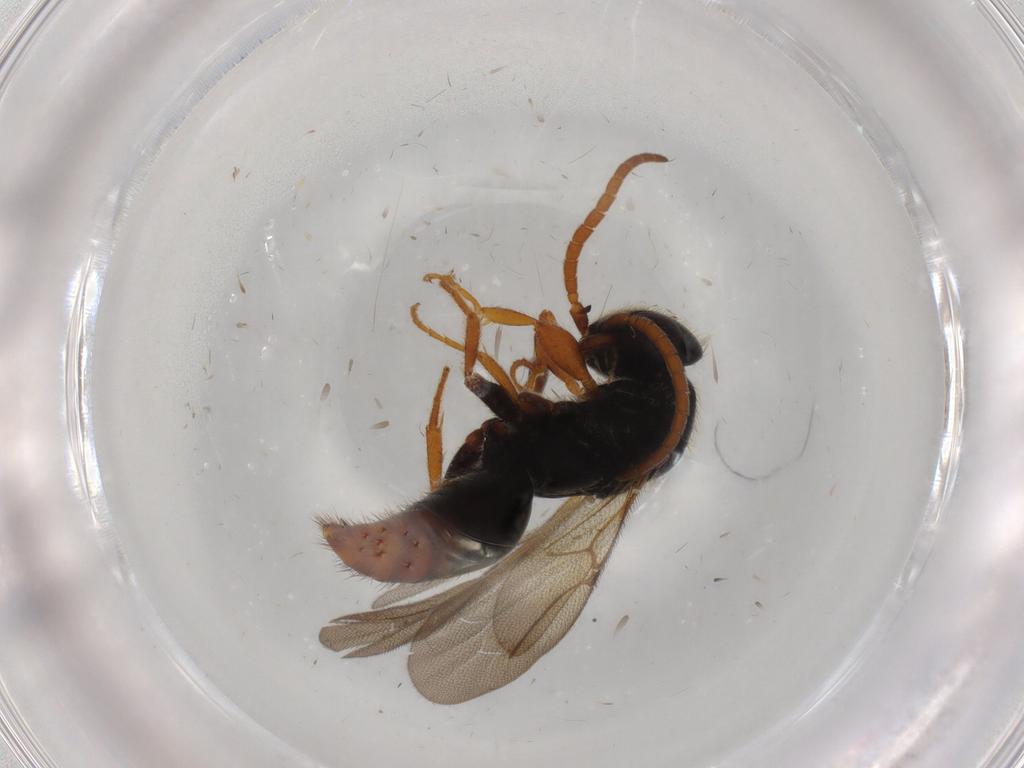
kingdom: Animalia
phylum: Arthropoda
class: Insecta
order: Hymenoptera
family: Bethylidae
